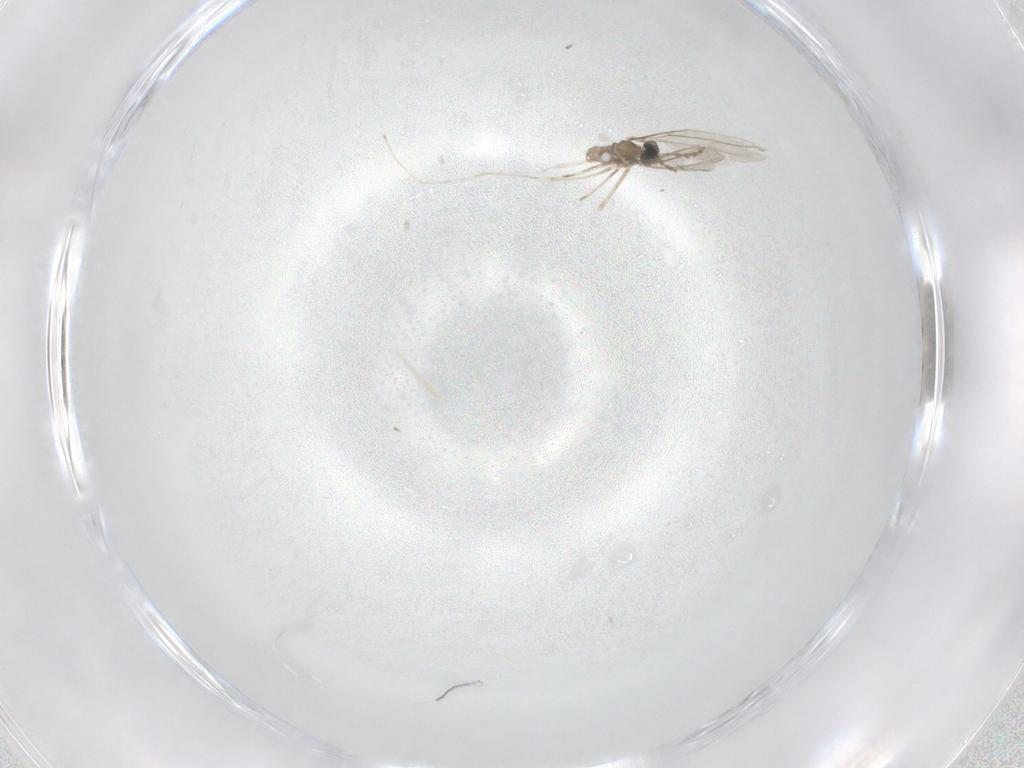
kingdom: Animalia
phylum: Arthropoda
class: Insecta
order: Diptera
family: Cecidomyiidae
